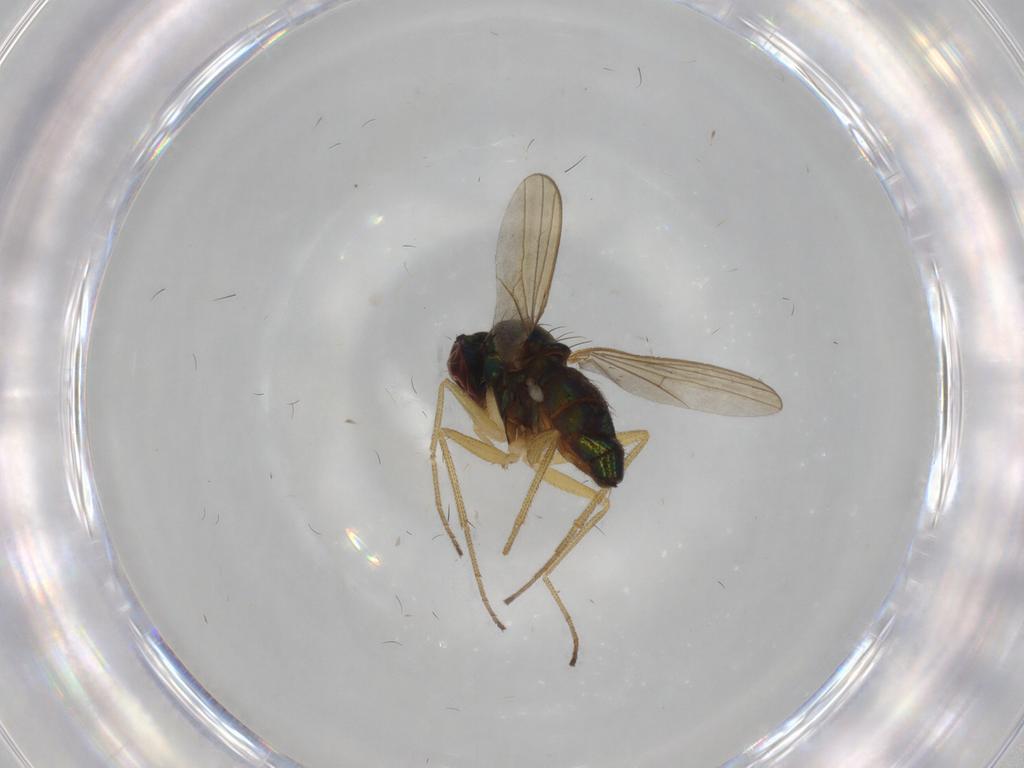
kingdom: Animalia
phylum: Arthropoda
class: Insecta
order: Diptera
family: Dolichopodidae
